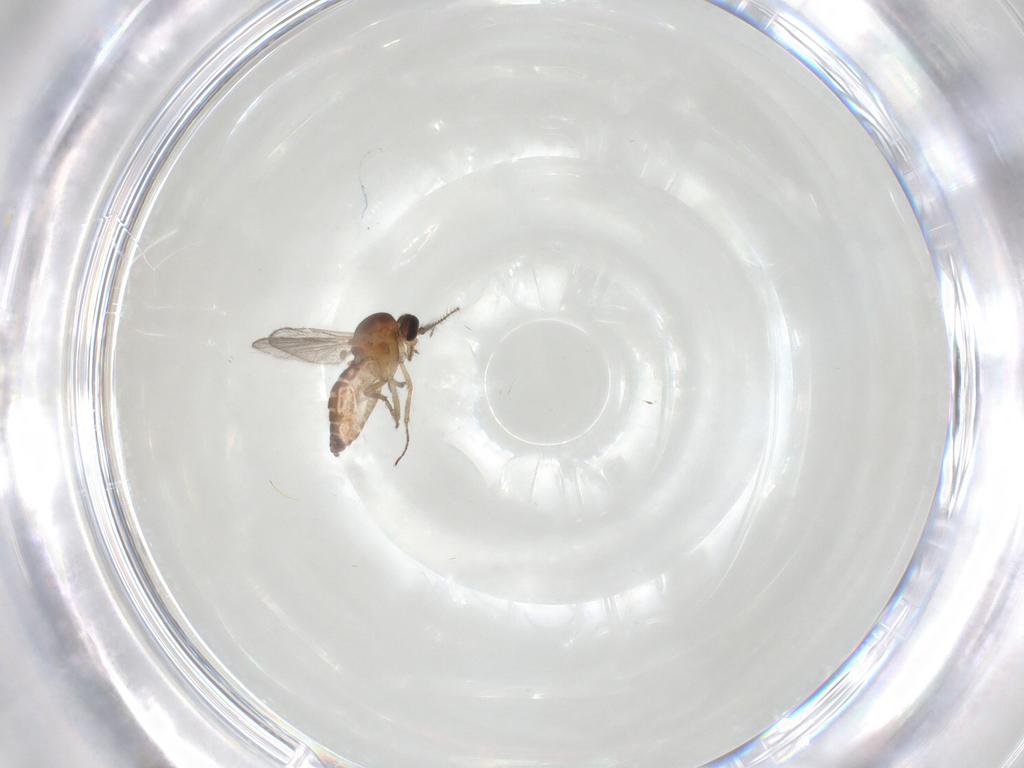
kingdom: Animalia
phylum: Arthropoda
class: Insecta
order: Diptera
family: Ceratopogonidae
